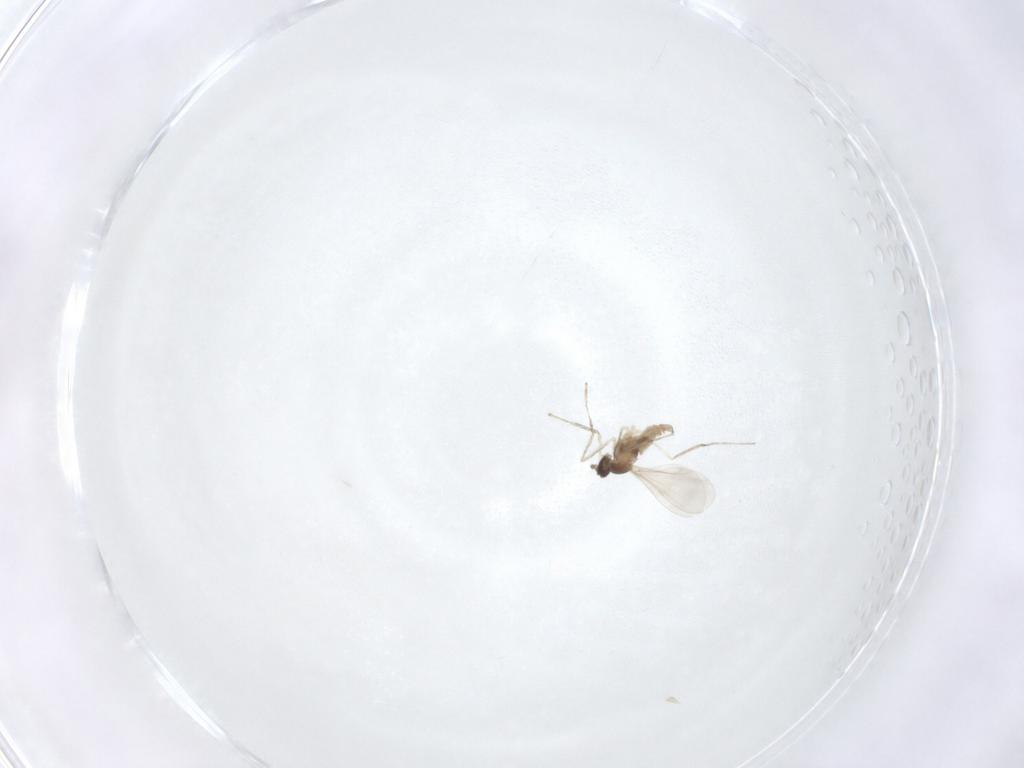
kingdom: Animalia
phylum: Arthropoda
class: Insecta
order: Diptera
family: Cecidomyiidae
